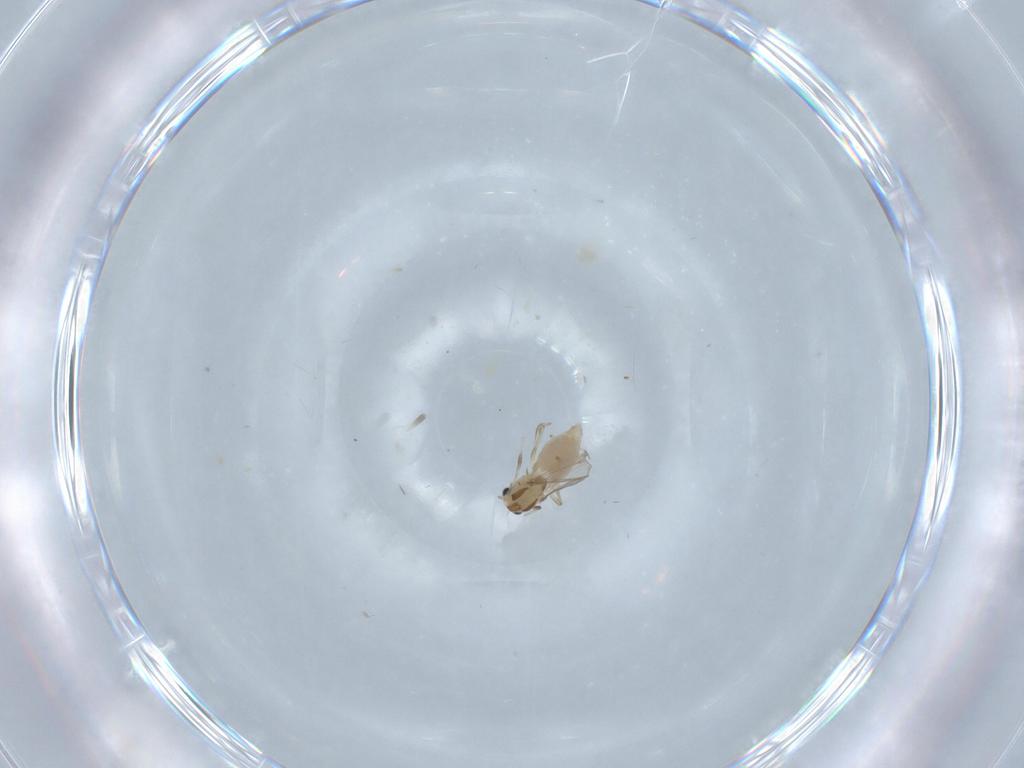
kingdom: Animalia
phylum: Arthropoda
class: Insecta
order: Diptera
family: Chironomidae
